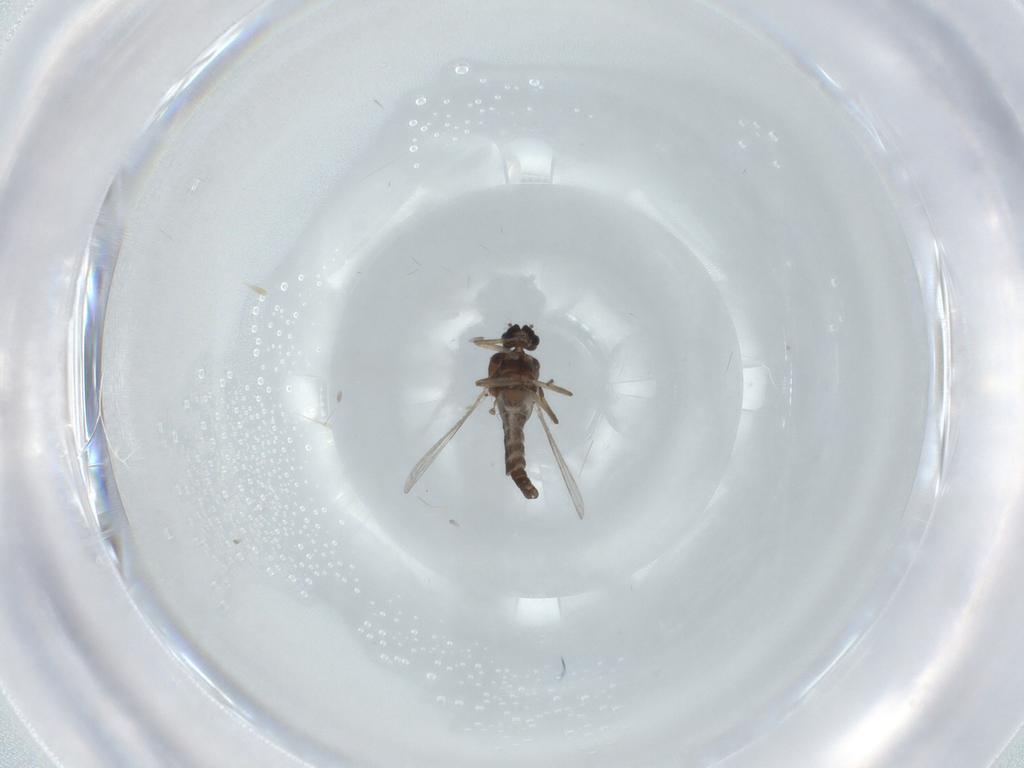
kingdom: Animalia
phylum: Arthropoda
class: Insecta
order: Diptera
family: Ceratopogonidae
